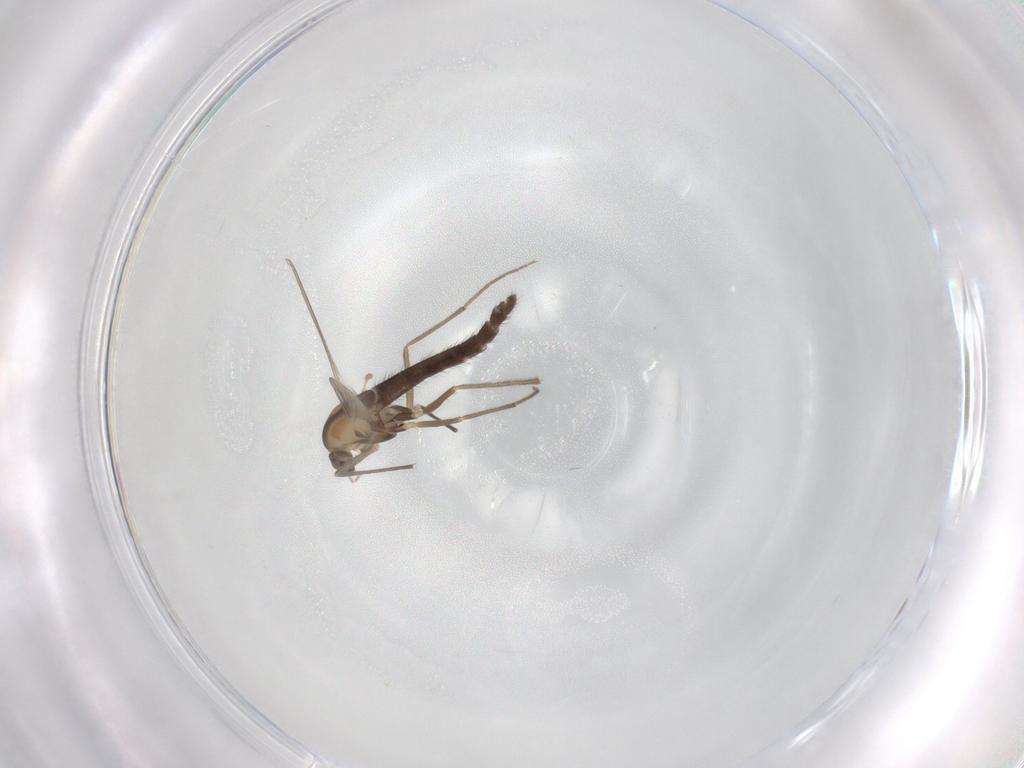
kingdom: Animalia
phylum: Arthropoda
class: Insecta
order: Diptera
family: Chironomidae
